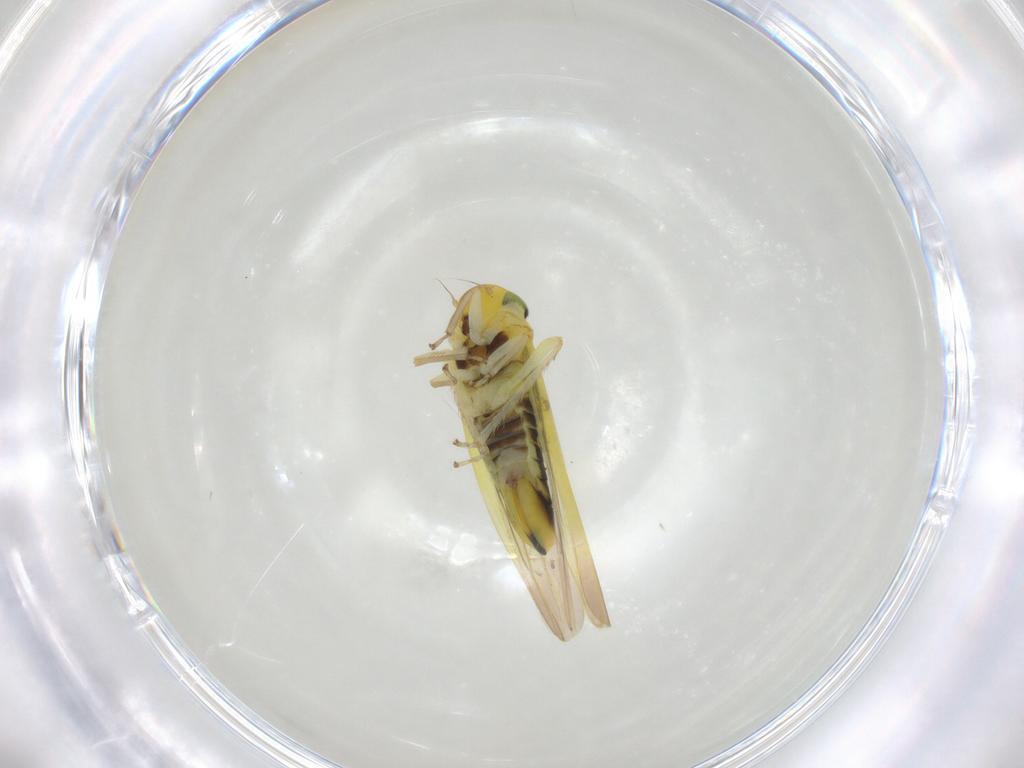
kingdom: Animalia
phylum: Arthropoda
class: Insecta
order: Hemiptera
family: Cicadellidae
